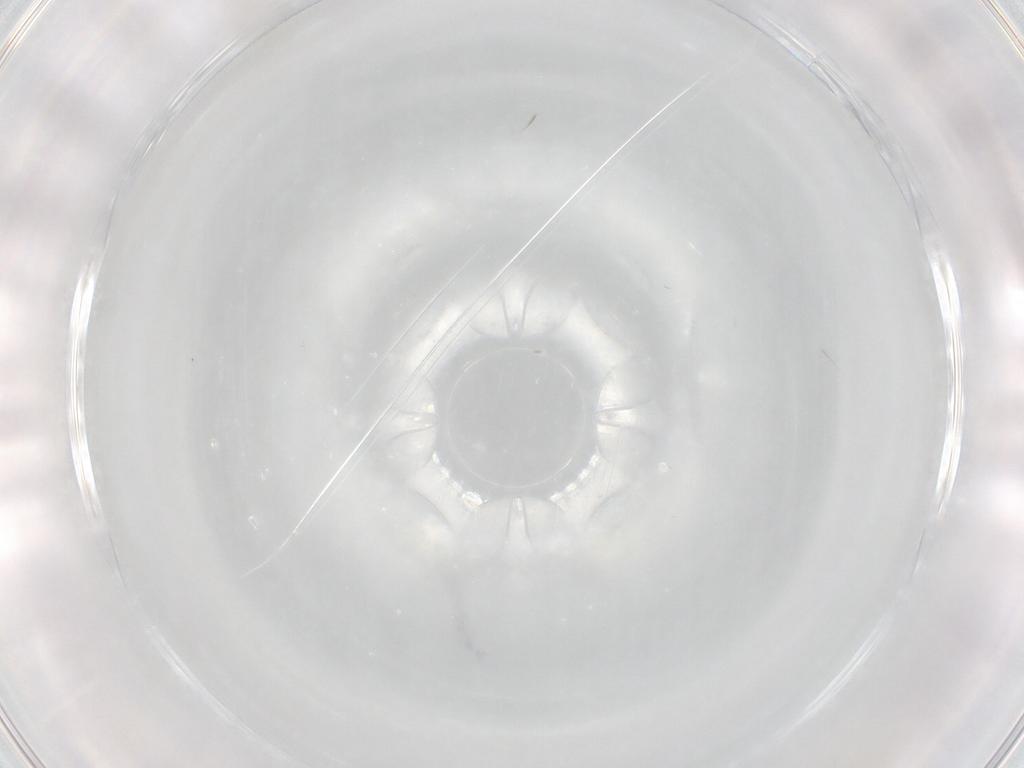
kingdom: Animalia
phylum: Arthropoda
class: Arachnida
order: Trombidiformes
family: Eupodidae
